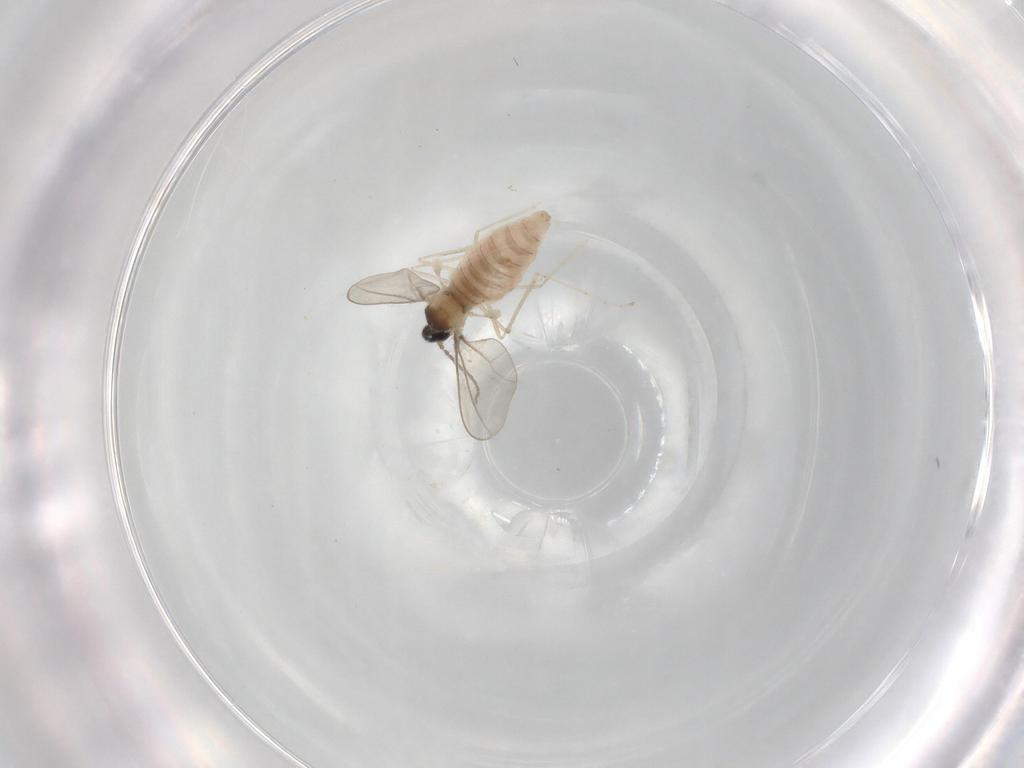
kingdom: Animalia
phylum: Arthropoda
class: Insecta
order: Diptera
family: Cecidomyiidae
